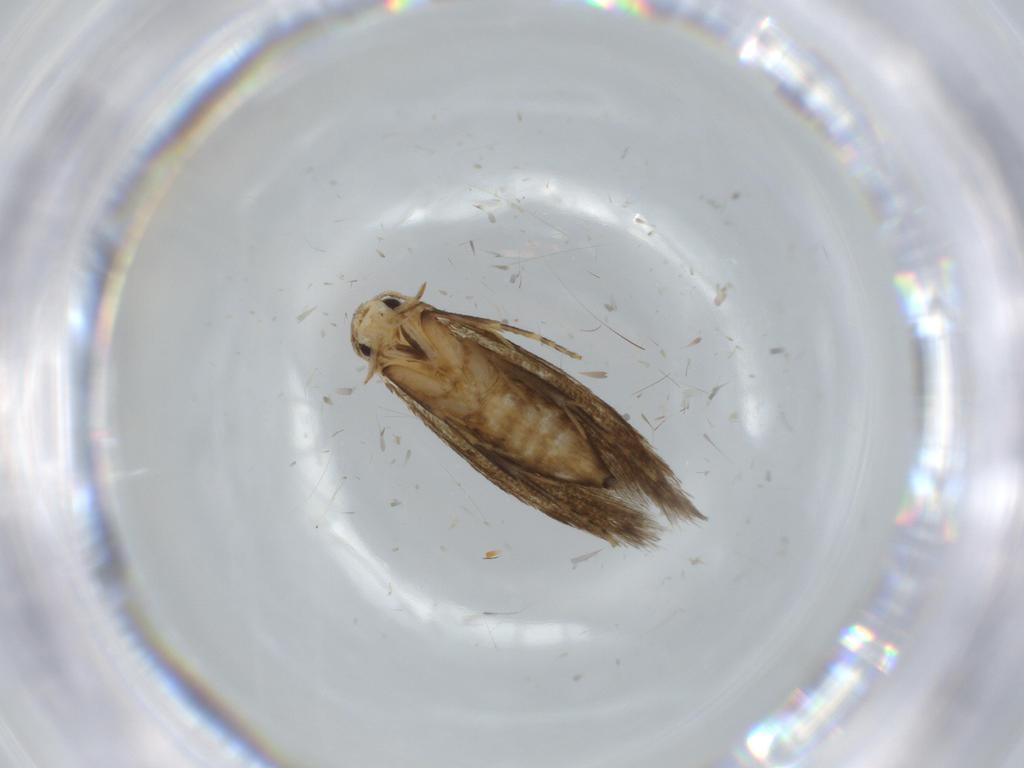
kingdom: Animalia
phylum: Arthropoda
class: Insecta
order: Lepidoptera
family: Tineidae
